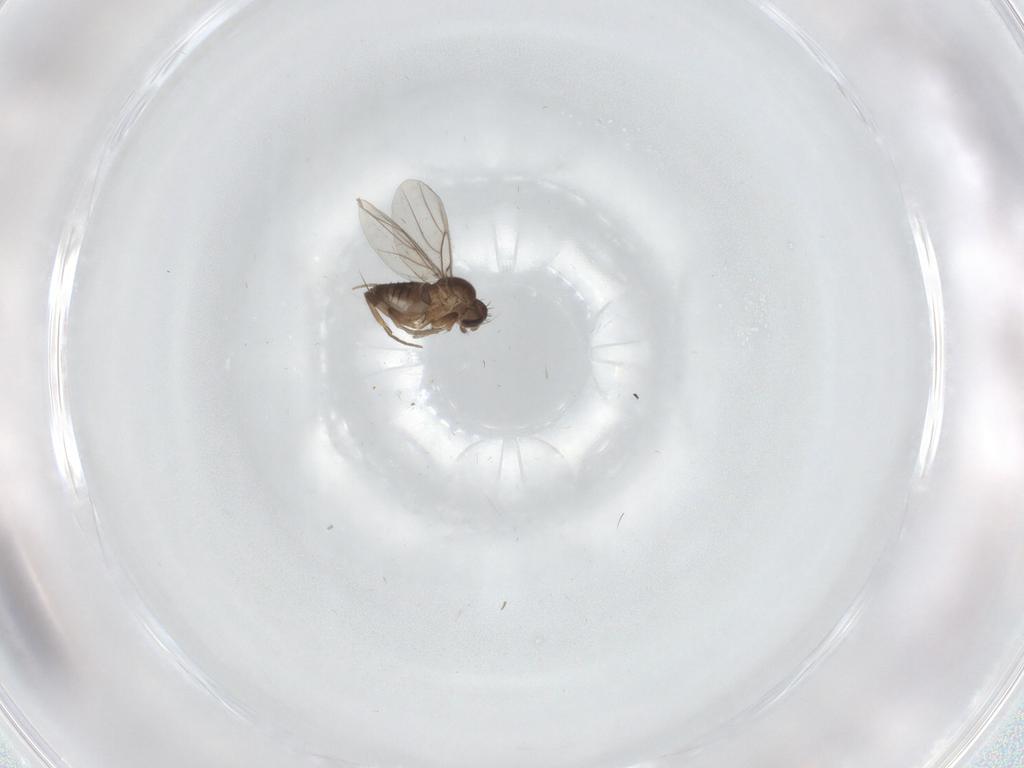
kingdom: Animalia
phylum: Arthropoda
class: Insecta
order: Diptera
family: Phoridae
